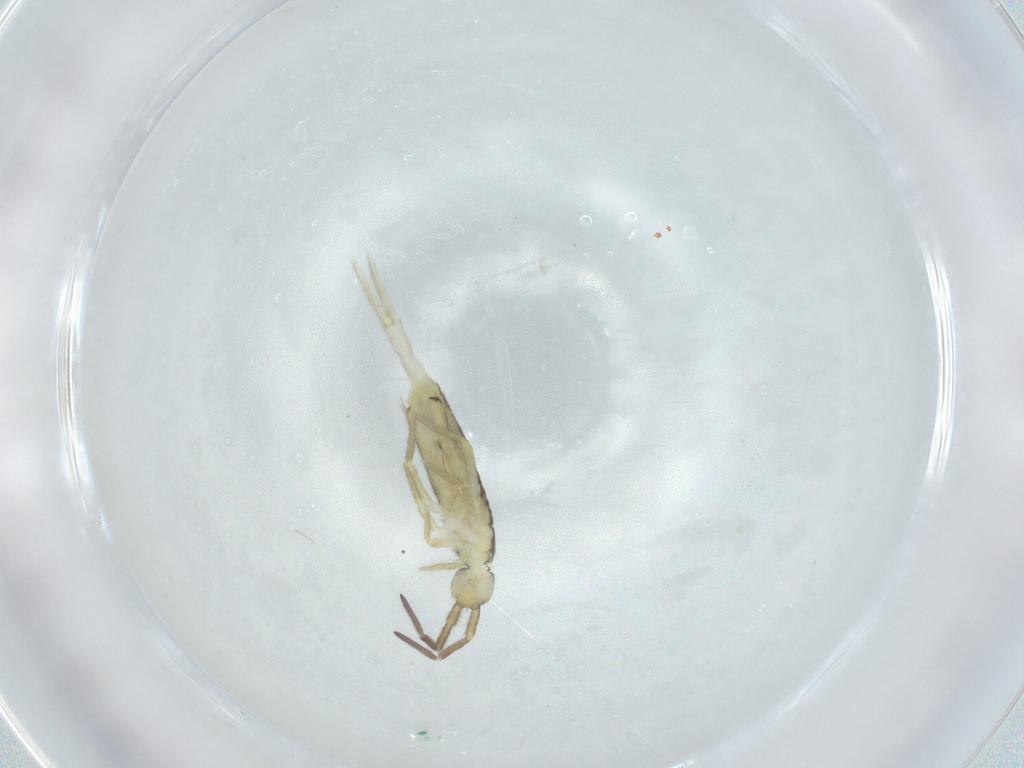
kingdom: Animalia
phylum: Arthropoda
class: Collembola
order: Entomobryomorpha
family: Entomobryidae
